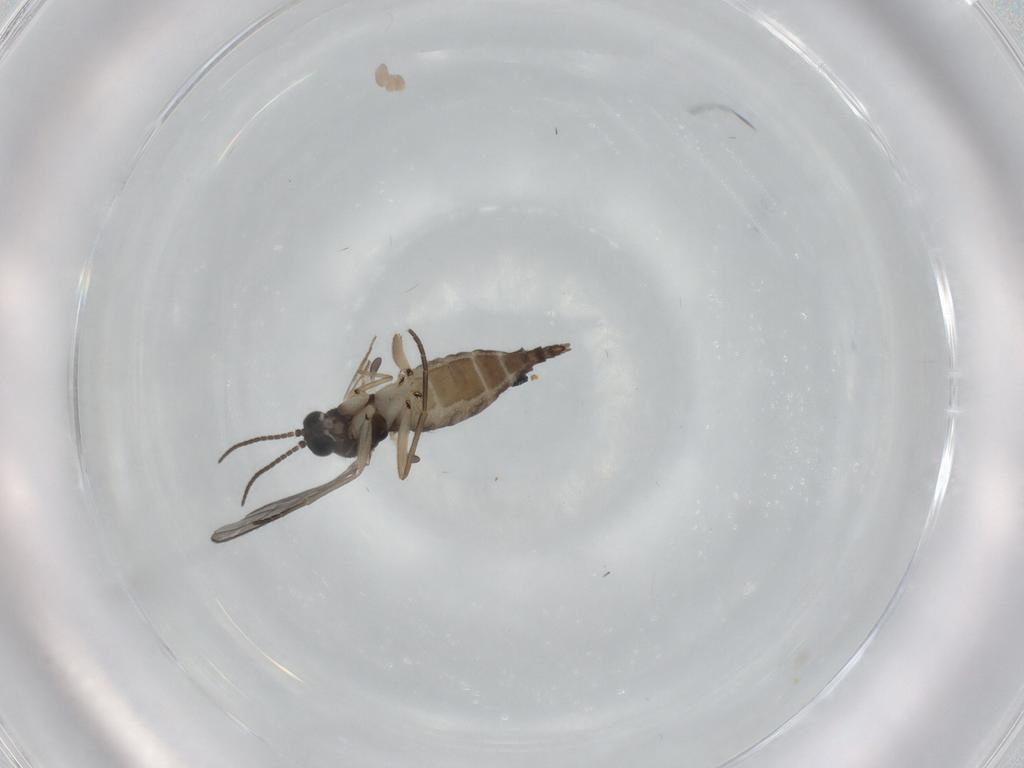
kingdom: Animalia
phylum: Arthropoda
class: Insecta
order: Diptera
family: Sciaridae
